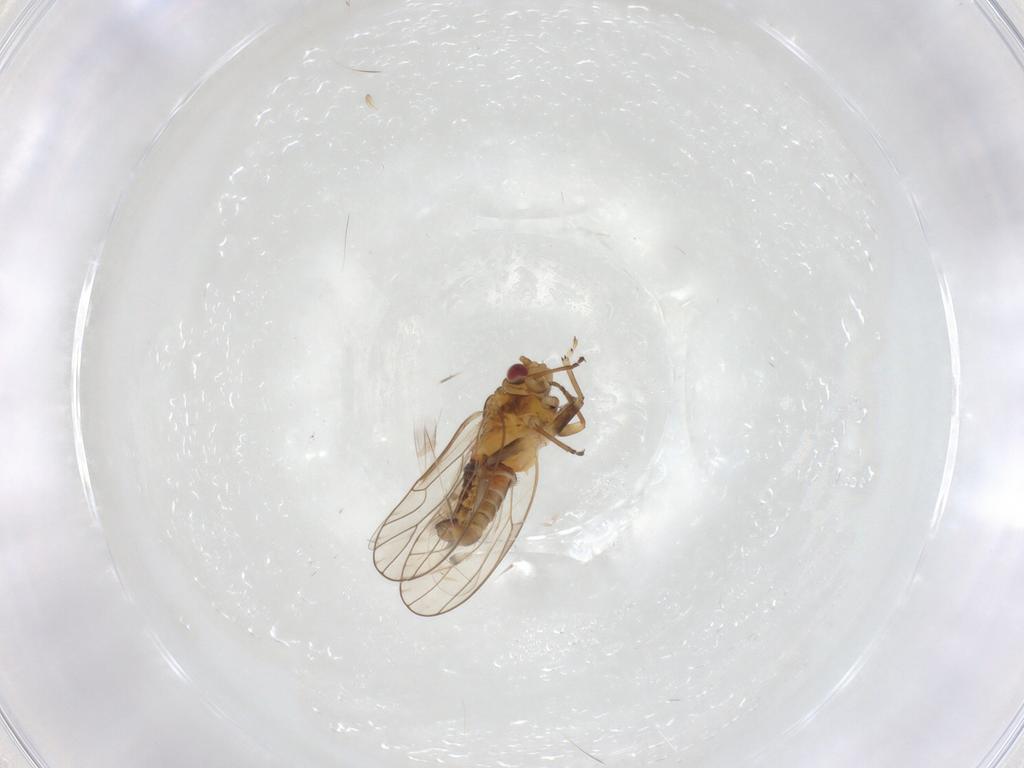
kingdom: Animalia
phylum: Arthropoda
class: Insecta
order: Hemiptera
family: Psyllidae
